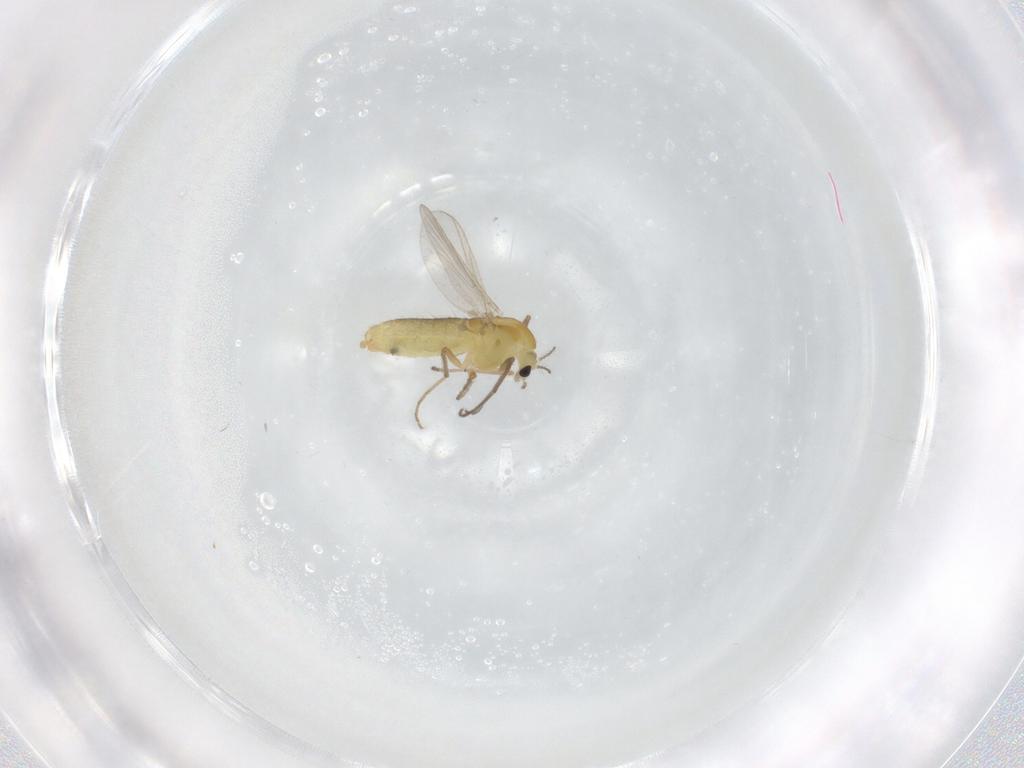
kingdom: Animalia
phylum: Arthropoda
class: Insecta
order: Diptera
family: Chironomidae
